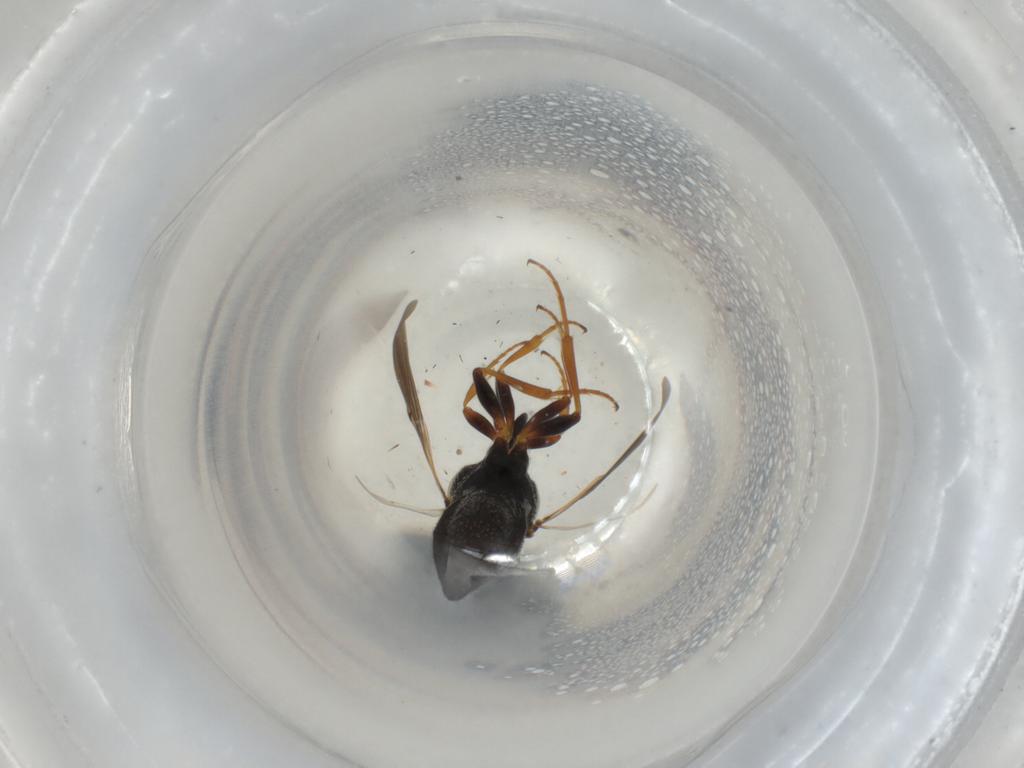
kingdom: Animalia
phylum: Arthropoda
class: Insecta
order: Hymenoptera
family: Scelionidae
